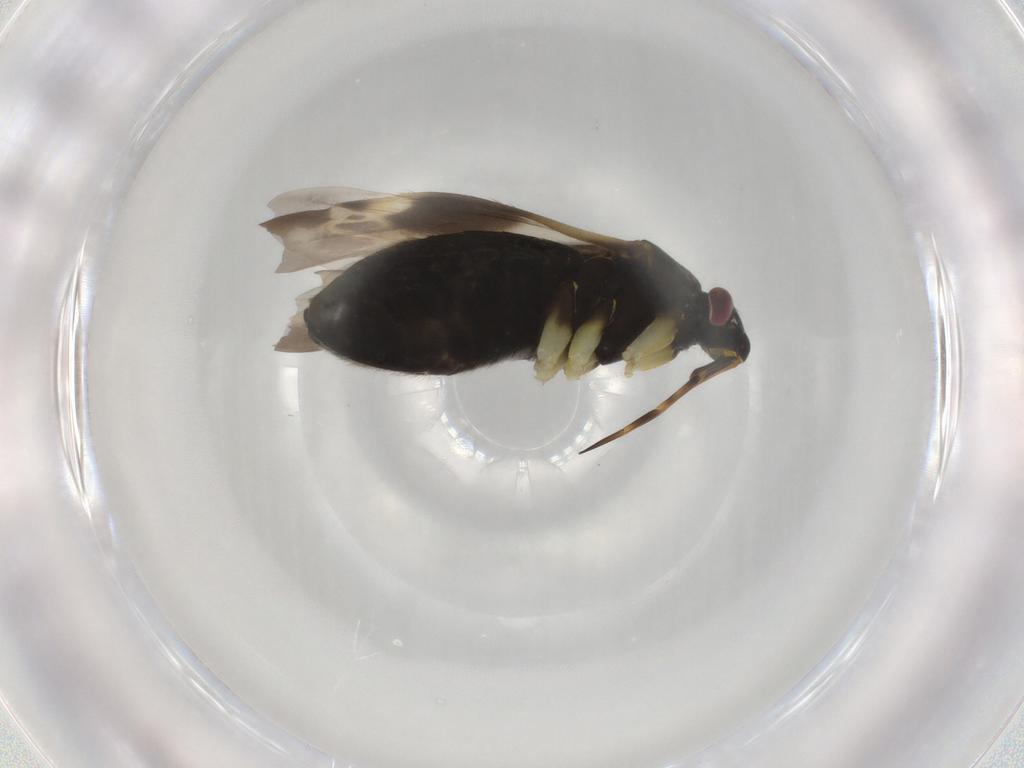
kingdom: Animalia
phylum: Arthropoda
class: Insecta
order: Hemiptera
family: Miridae
